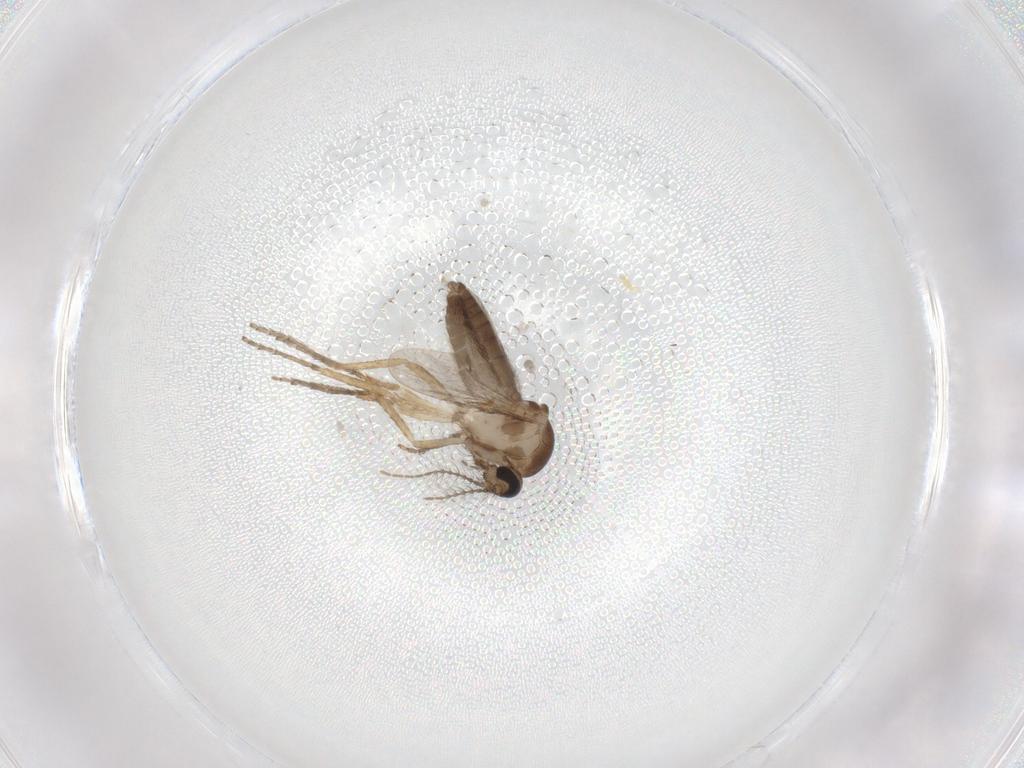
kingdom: Animalia
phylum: Arthropoda
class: Insecta
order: Diptera
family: Ceratopogonidae
